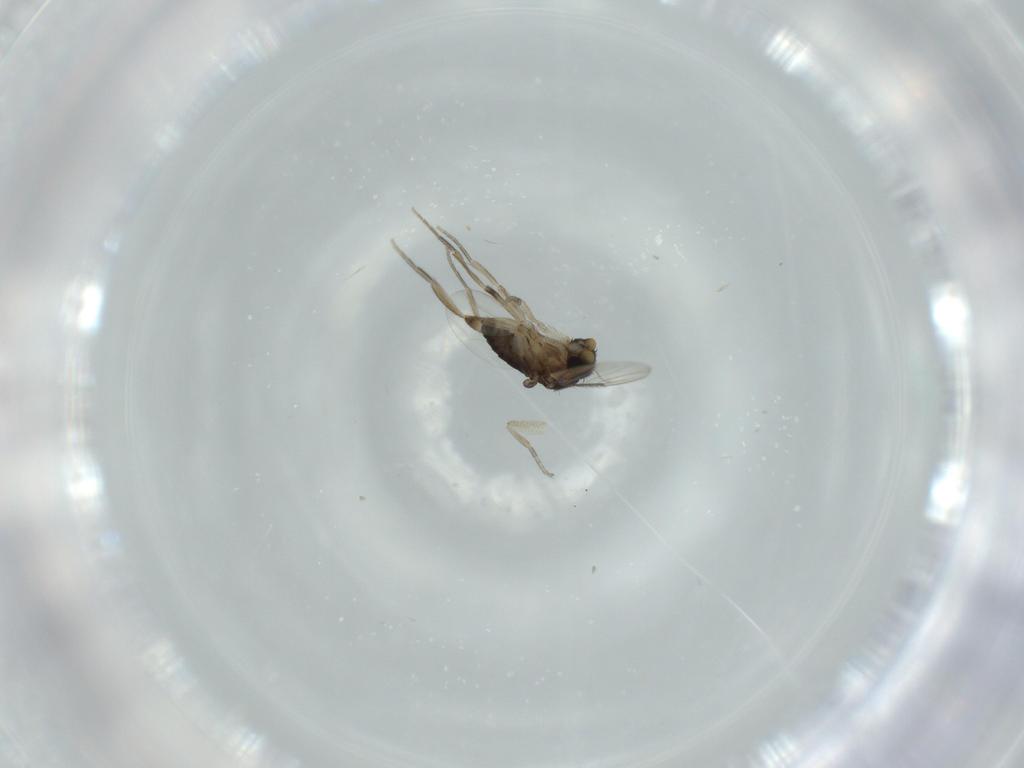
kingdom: Animalia
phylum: Arthropoda
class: Insecta
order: Diptera
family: Phoridae
